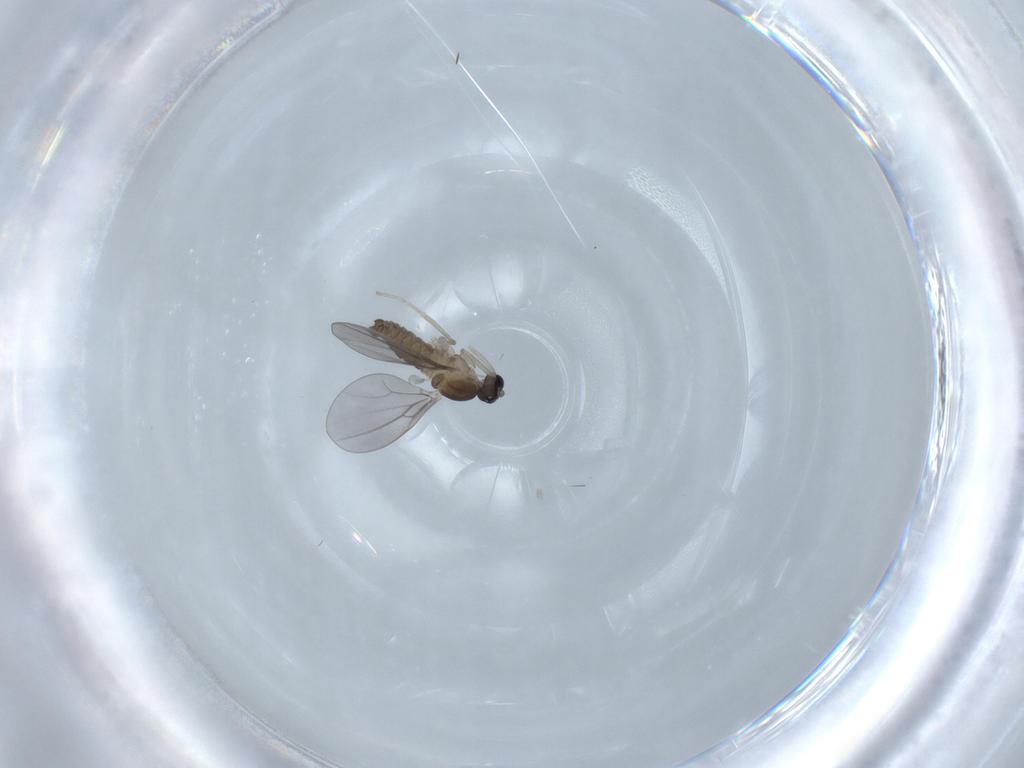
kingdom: Animalia
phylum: Arthropoda
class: Insecta
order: Diptera
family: Cecidomyiidae
